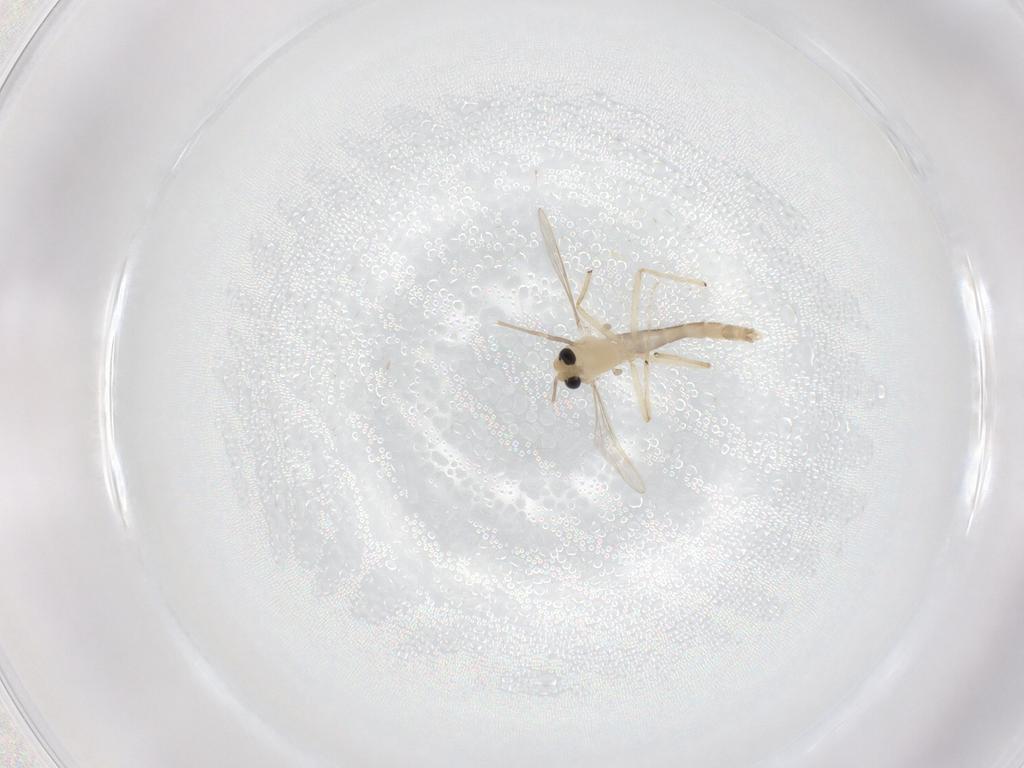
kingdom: Animalia
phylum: Arthropoda
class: Insecta
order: Diptera
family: Chironomidae
